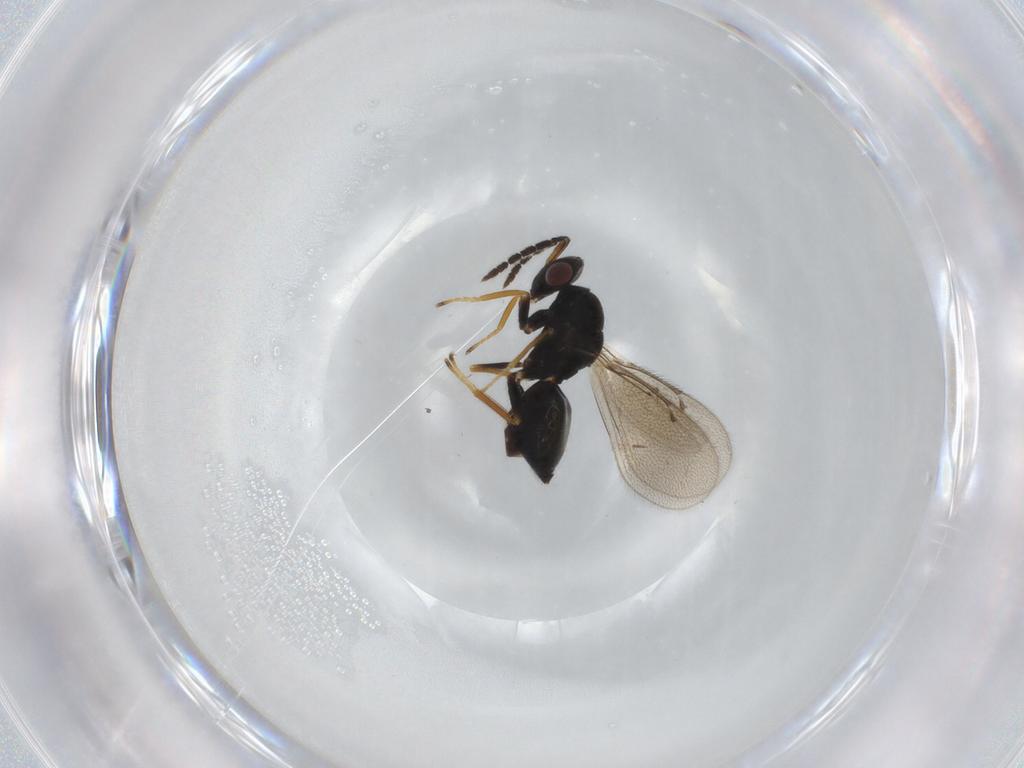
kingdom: Animalia
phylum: Arthropoda
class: Insecta
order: Hymenoptera
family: Eulophidae
